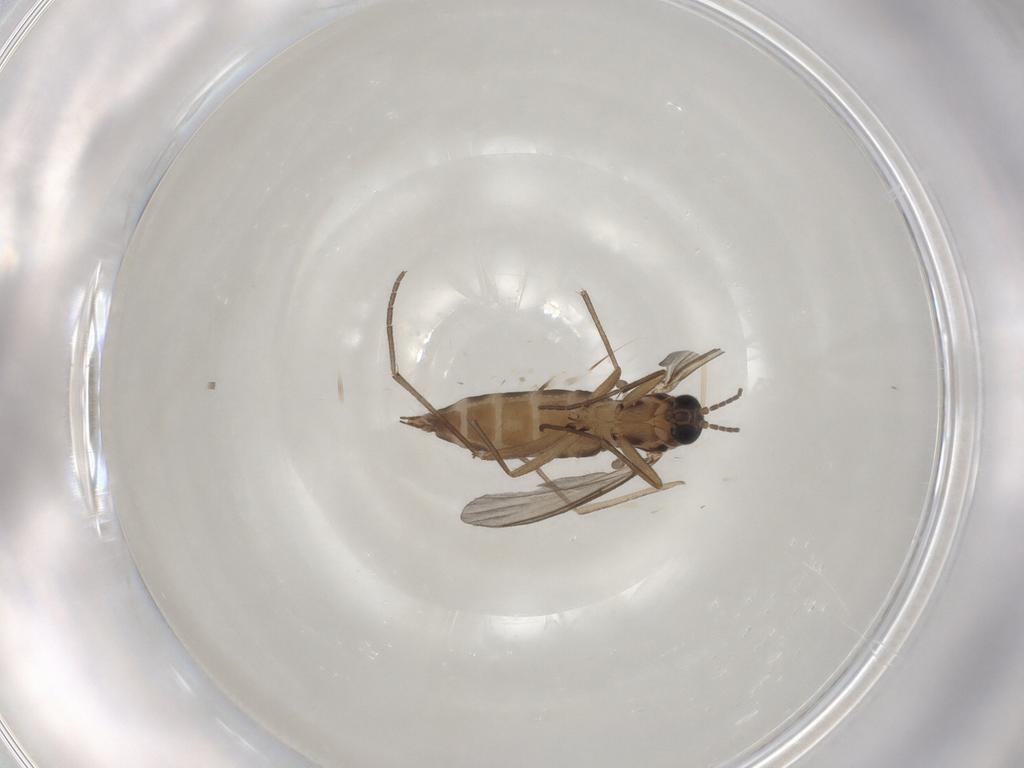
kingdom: Animalia
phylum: Arthropoda
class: Insecta
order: Diptera
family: Cecidomyiidae
